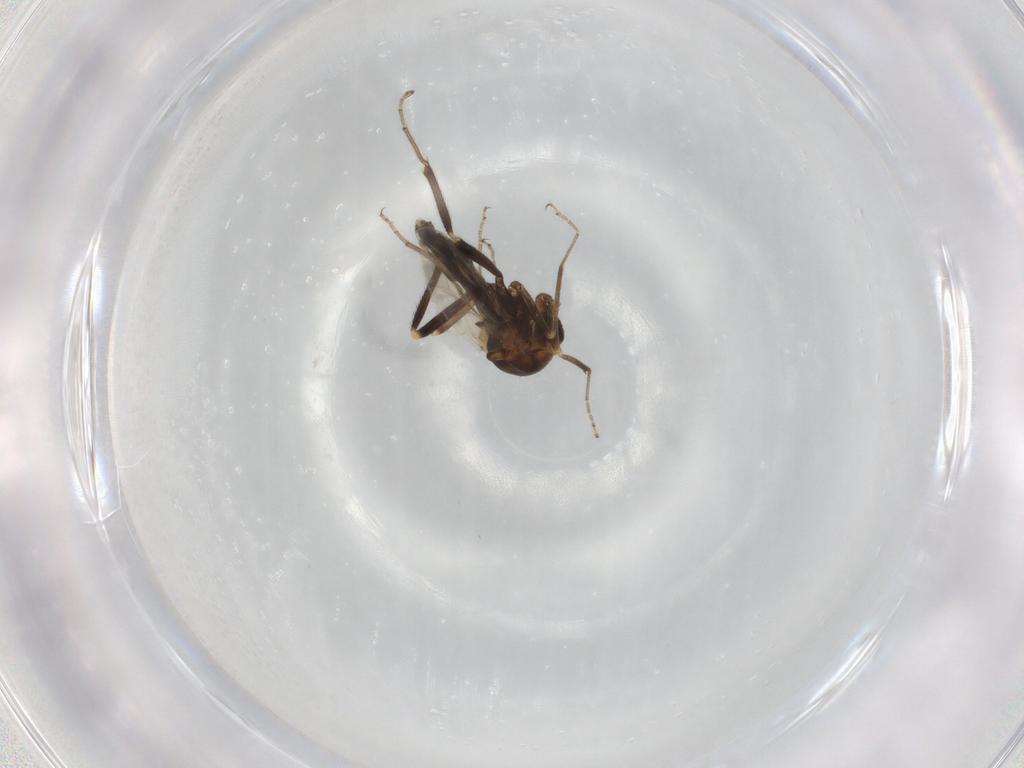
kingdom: Animalia
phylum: Arthropoda
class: Insecta
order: Diptera
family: Ceratopogonidae
